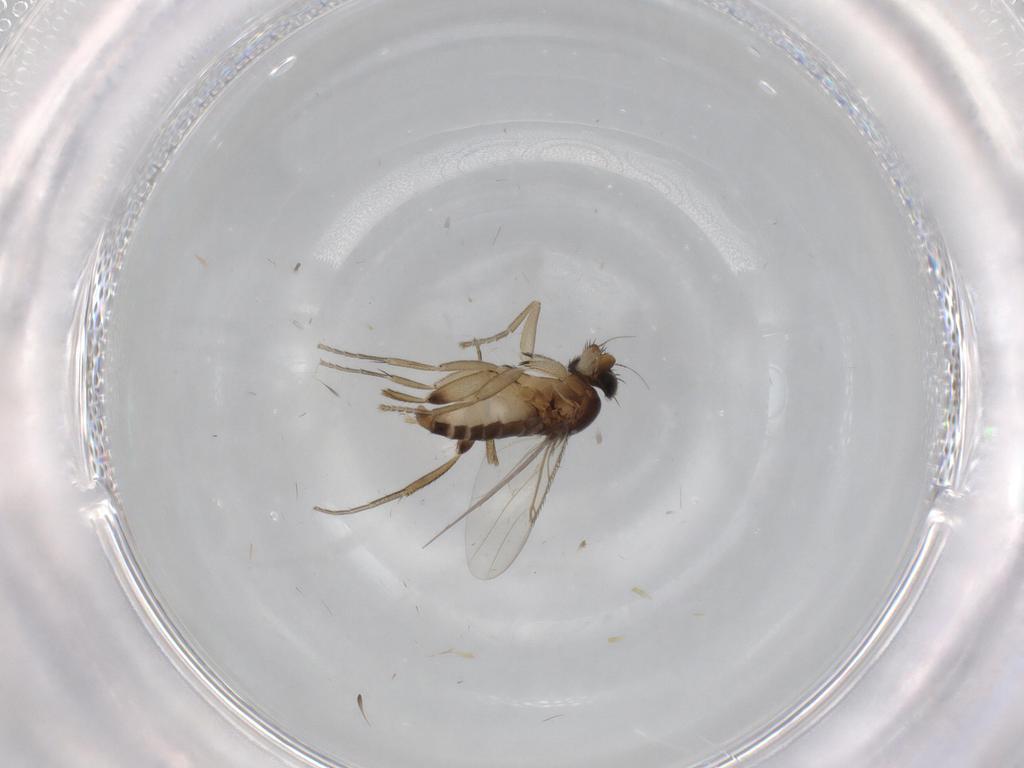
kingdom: Animalia
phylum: Arthropoda
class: Insecta
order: Diptera
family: Phoridae
